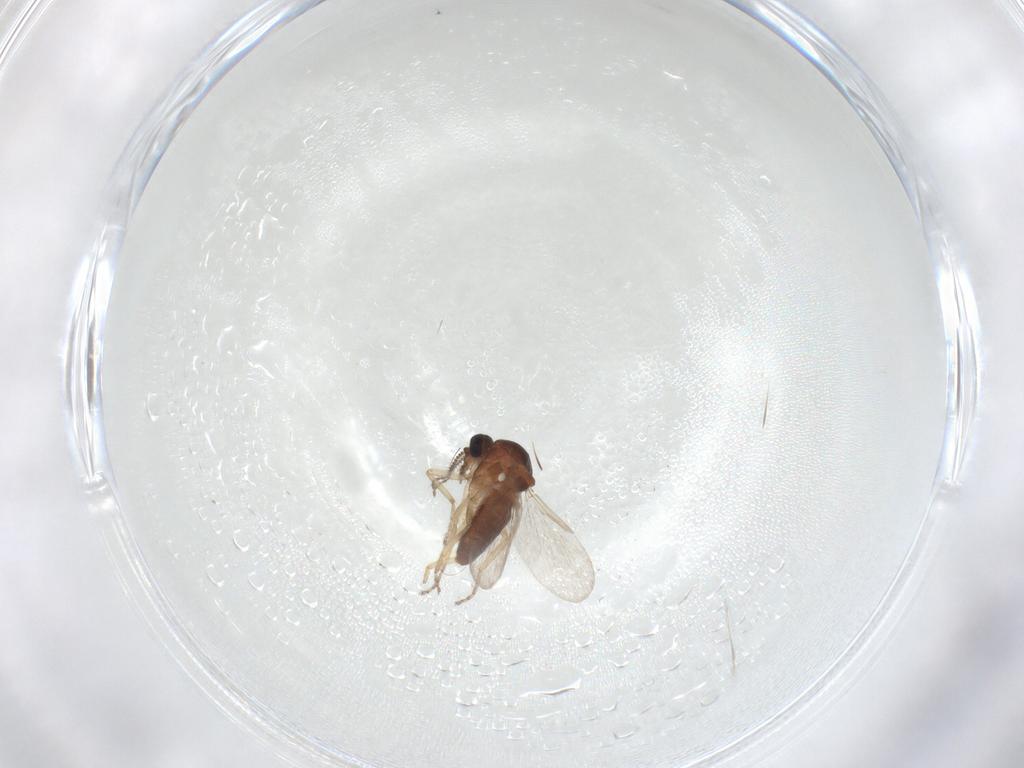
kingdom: Animalia
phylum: Arthropoda
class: Insecta
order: Diptera
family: Ceratopogonidae
